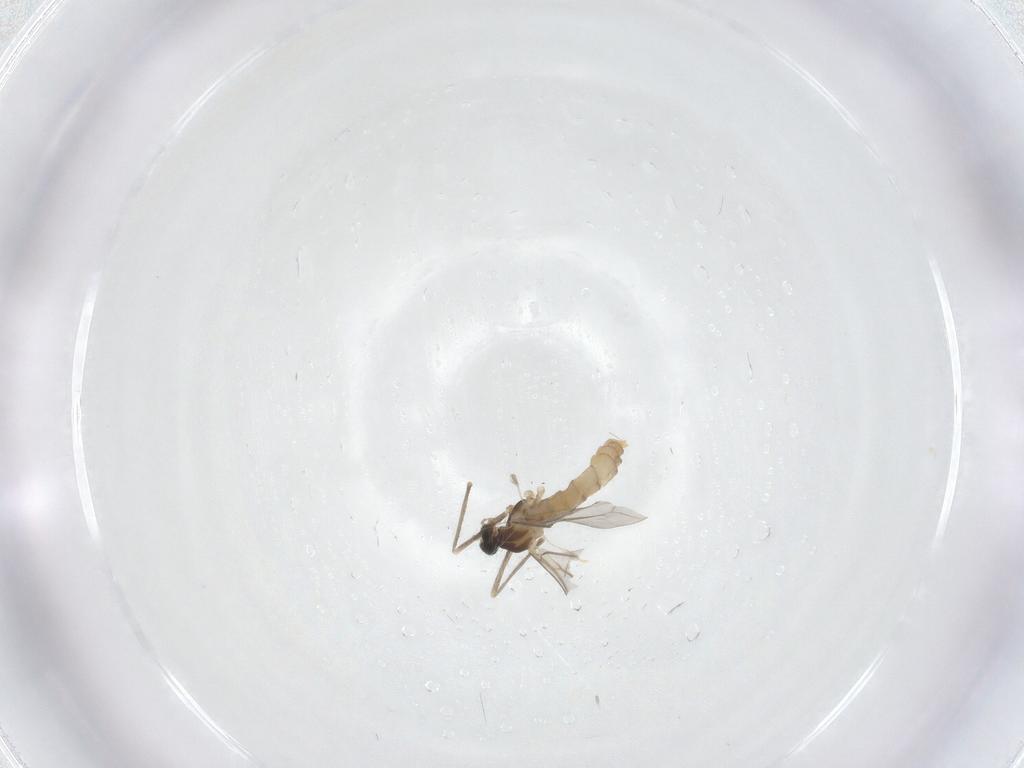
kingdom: Animalia
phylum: Arthropoda
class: Insecta
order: Diptera
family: Cecidomyiidae
